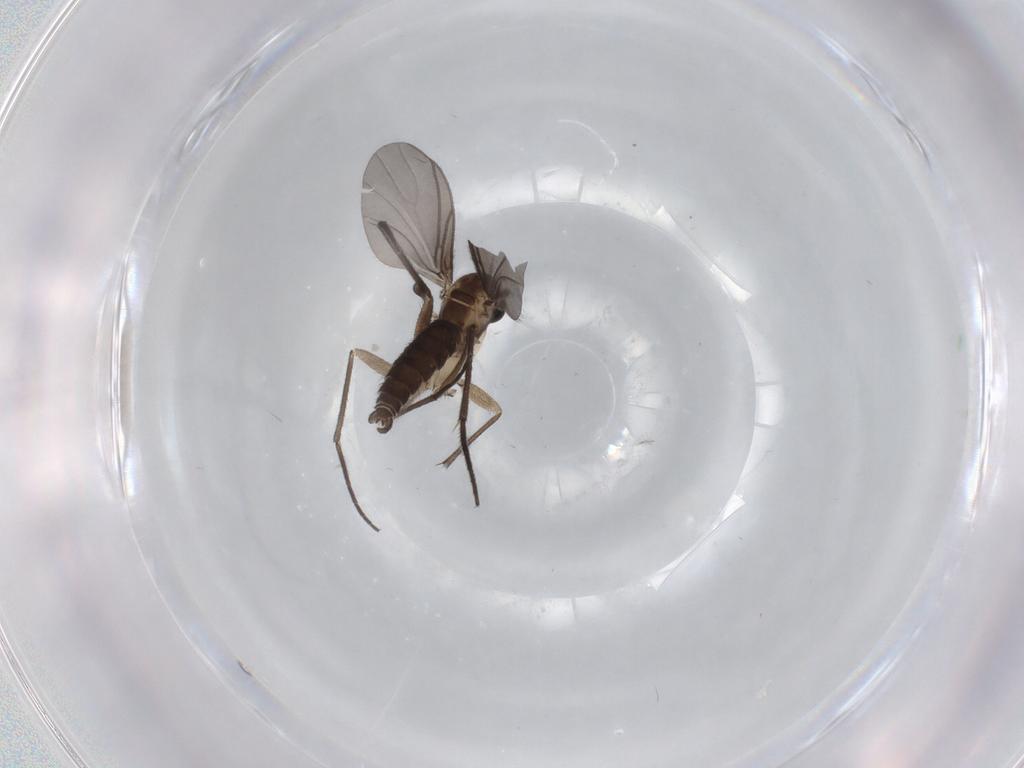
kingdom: Animalia
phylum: Arthropoda
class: Insecta
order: Diptera
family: Sciaridae
